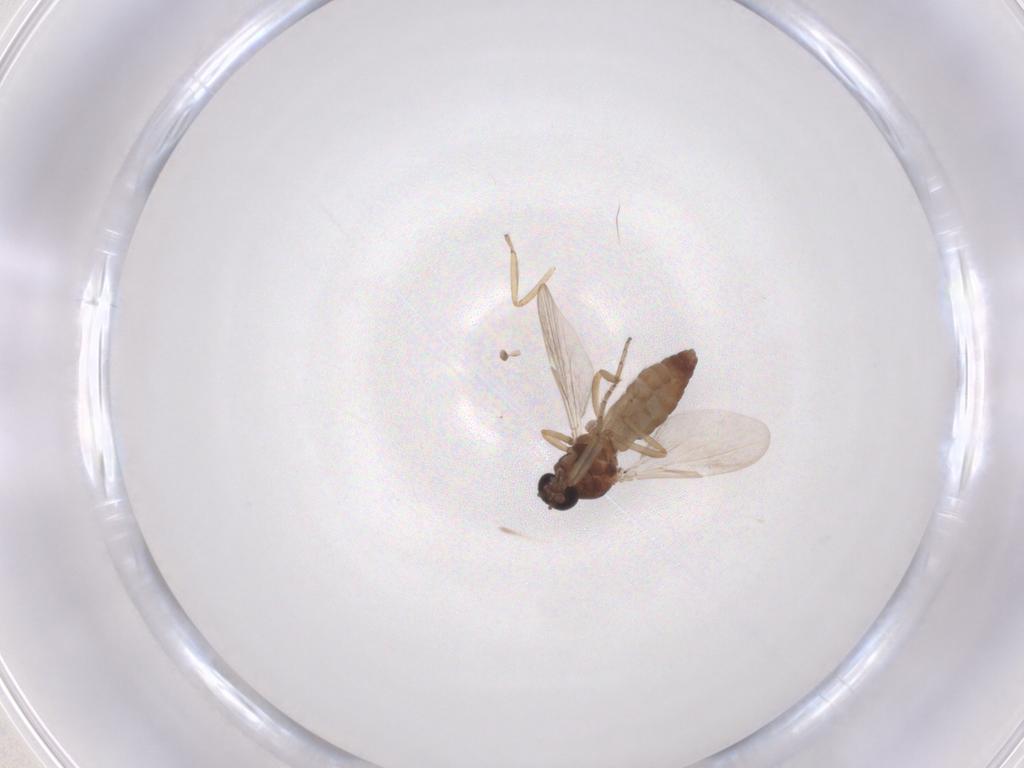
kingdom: Animalia
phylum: Arthropoda
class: Insecta
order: Diptera
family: Ceratopogonidae
